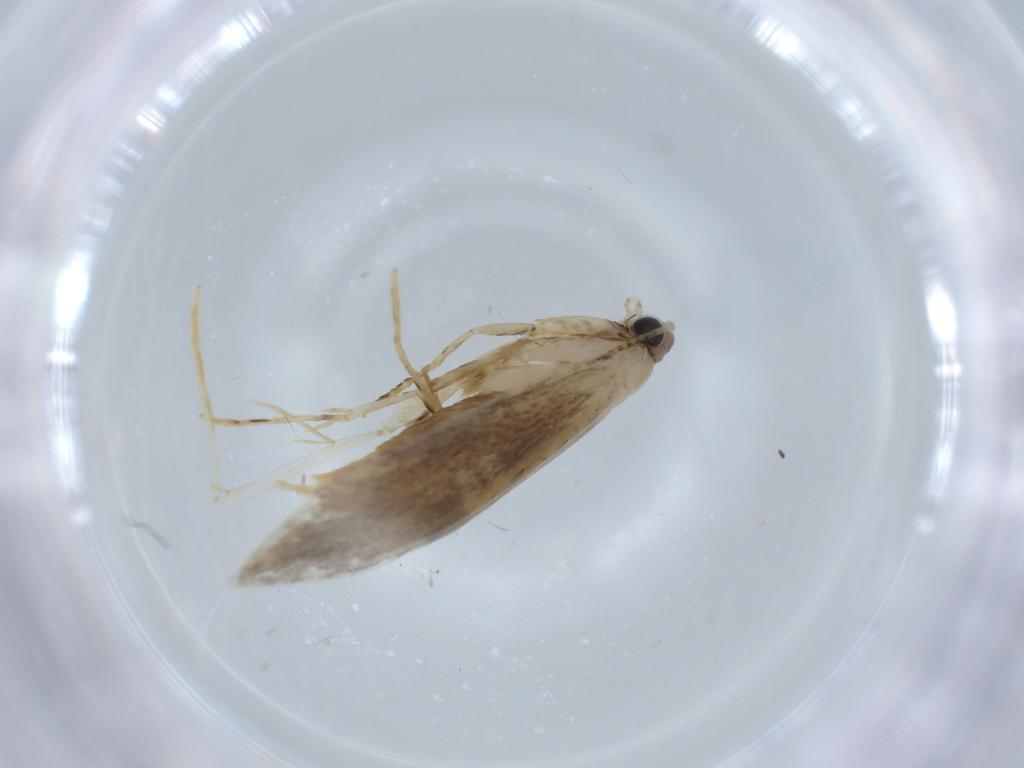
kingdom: Animalia
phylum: Arthropoda
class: Insecta
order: Lepidoptera
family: Tineidae
